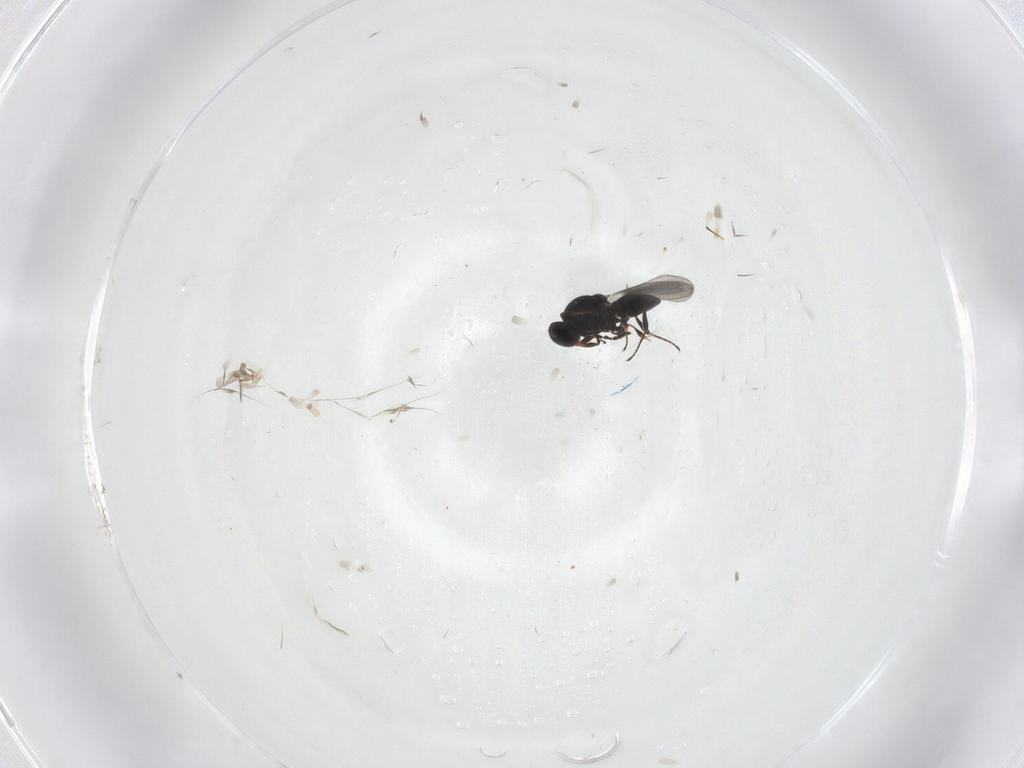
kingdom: Animalia
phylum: Arthropoda
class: Insecta
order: Hymenoptera
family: Platygastridae
